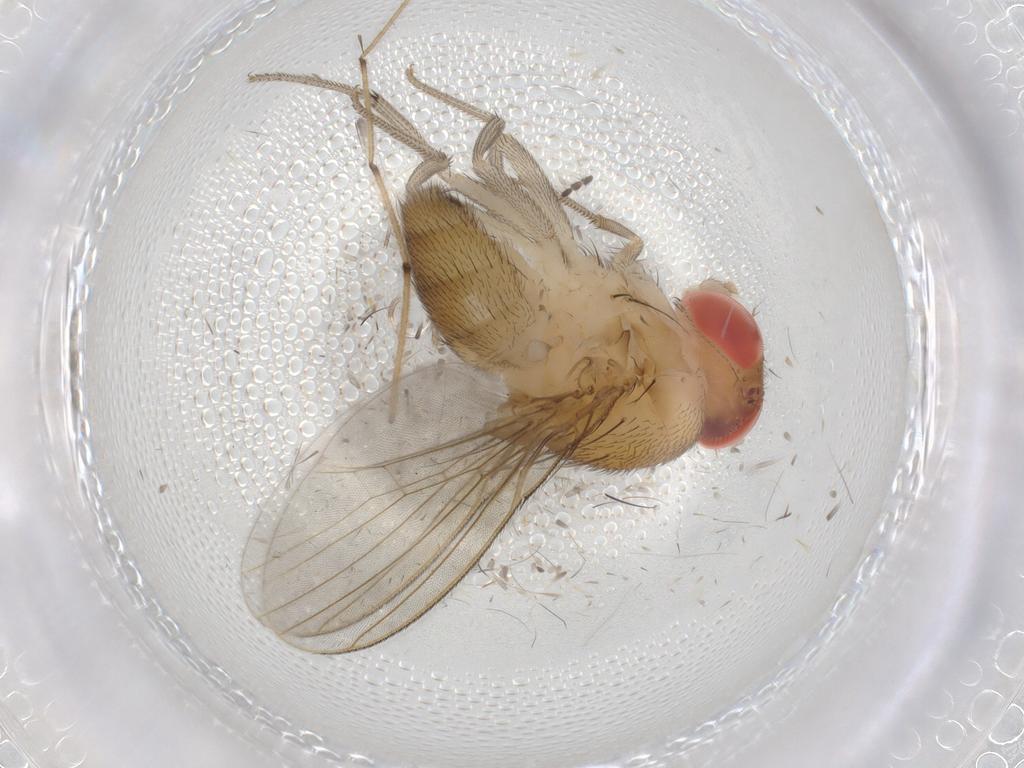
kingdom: Animalia
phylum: Arthropoda
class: Insecta
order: Diptera
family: Drosophilidae
